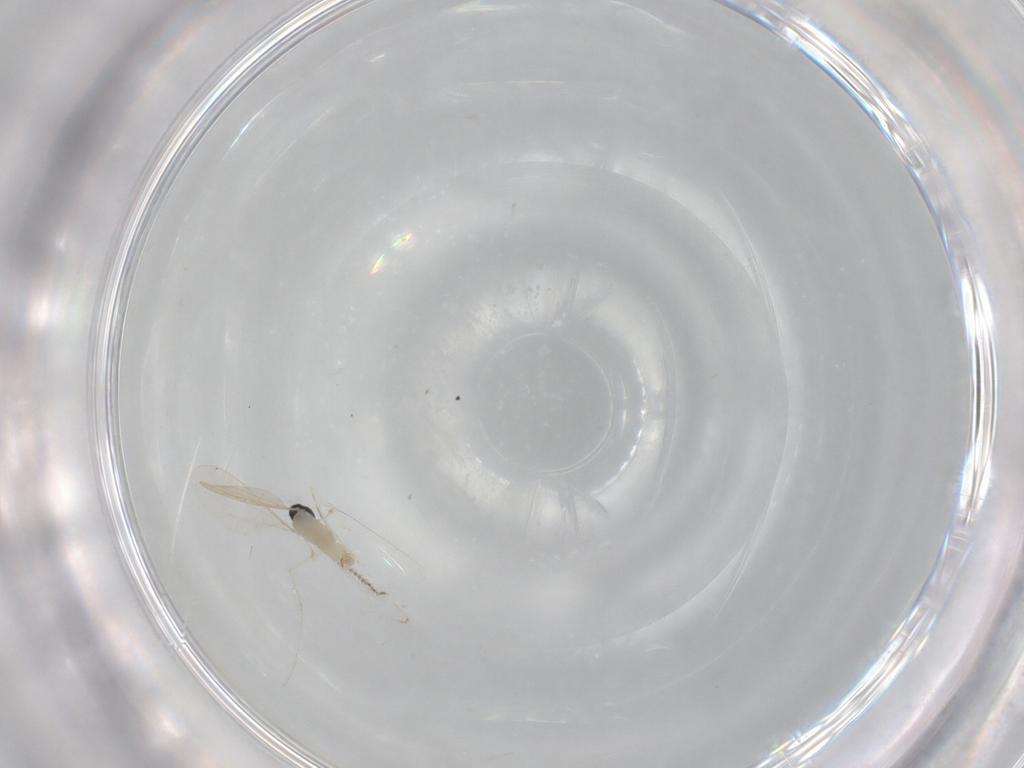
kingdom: Animalia
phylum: Arthropoda
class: Insecta
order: Diptera
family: Cecidomyiidae
